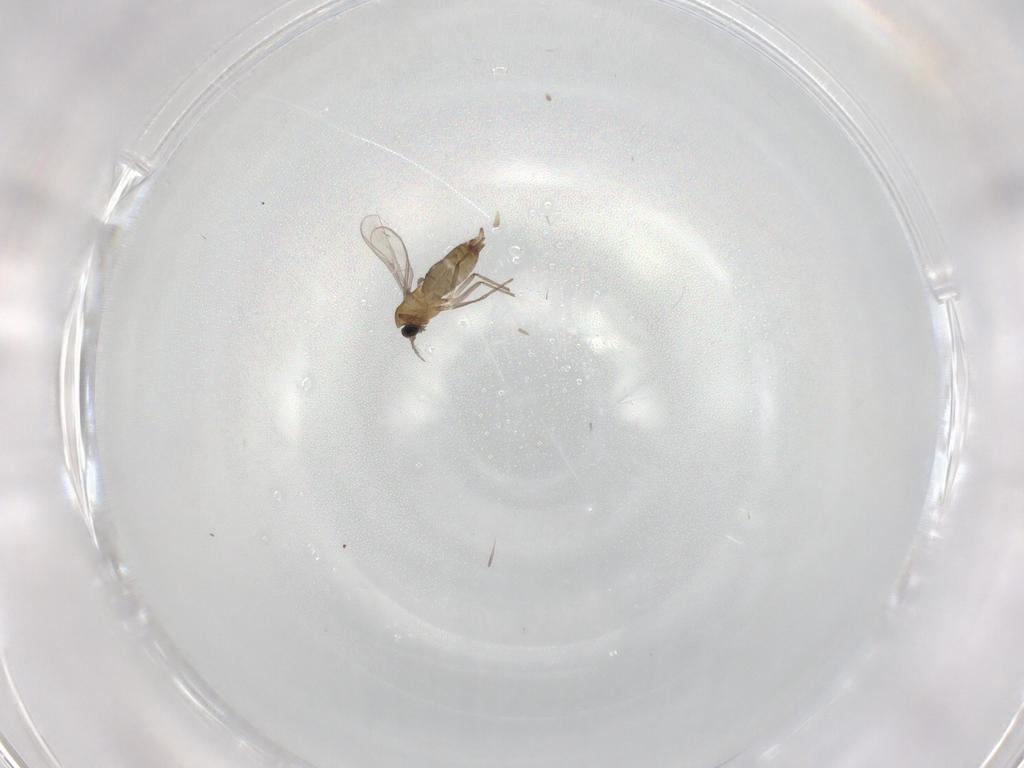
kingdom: Animalia
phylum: Arthropoda
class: Insecta
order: Diptera
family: Chironomidae
